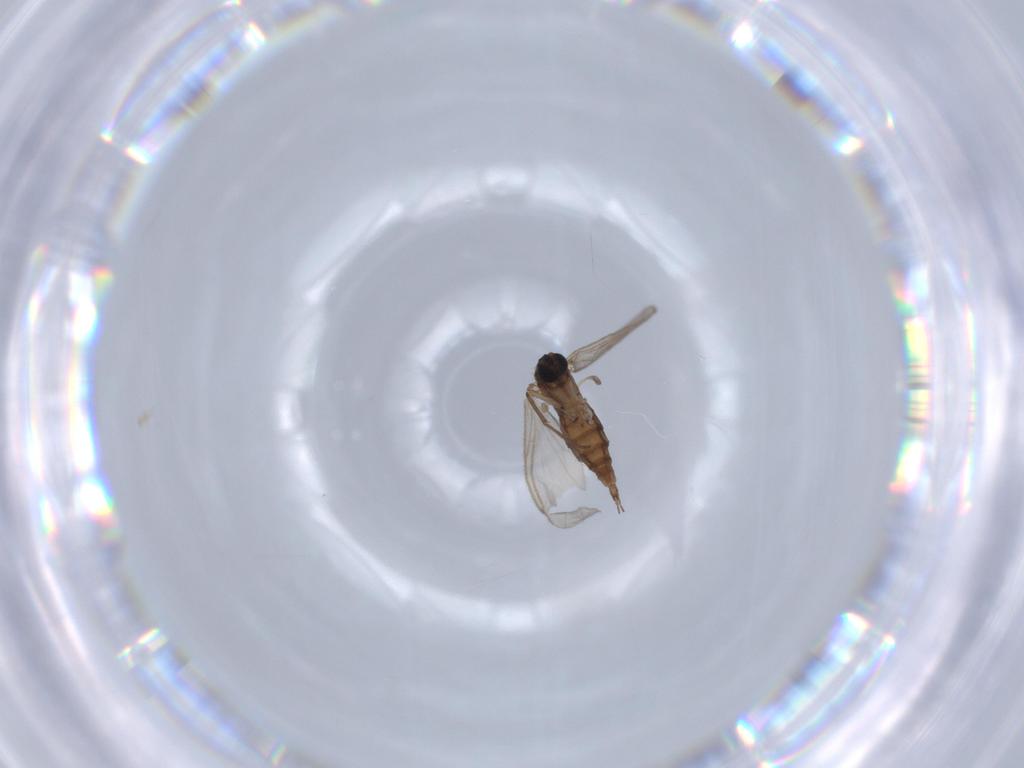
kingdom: Animalia
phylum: Arthropoda
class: Insecta
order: Diptera
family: Sciaridae
